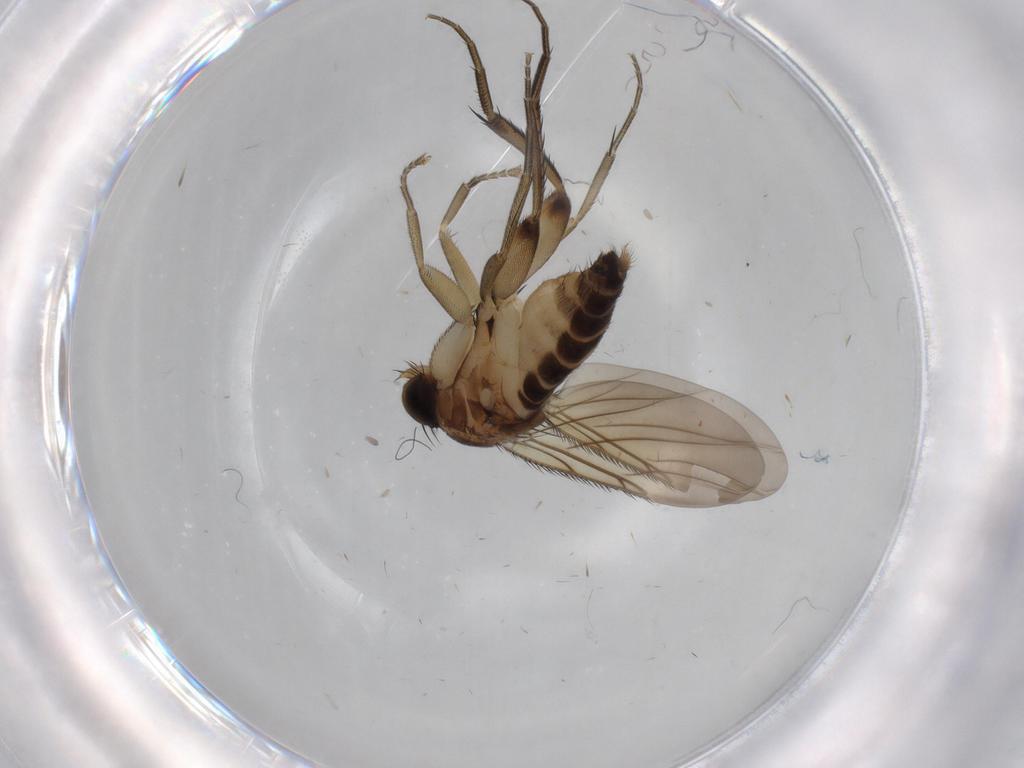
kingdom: Animalia
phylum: Arthropoda
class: Insecta
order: Diptera
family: Phoridae
